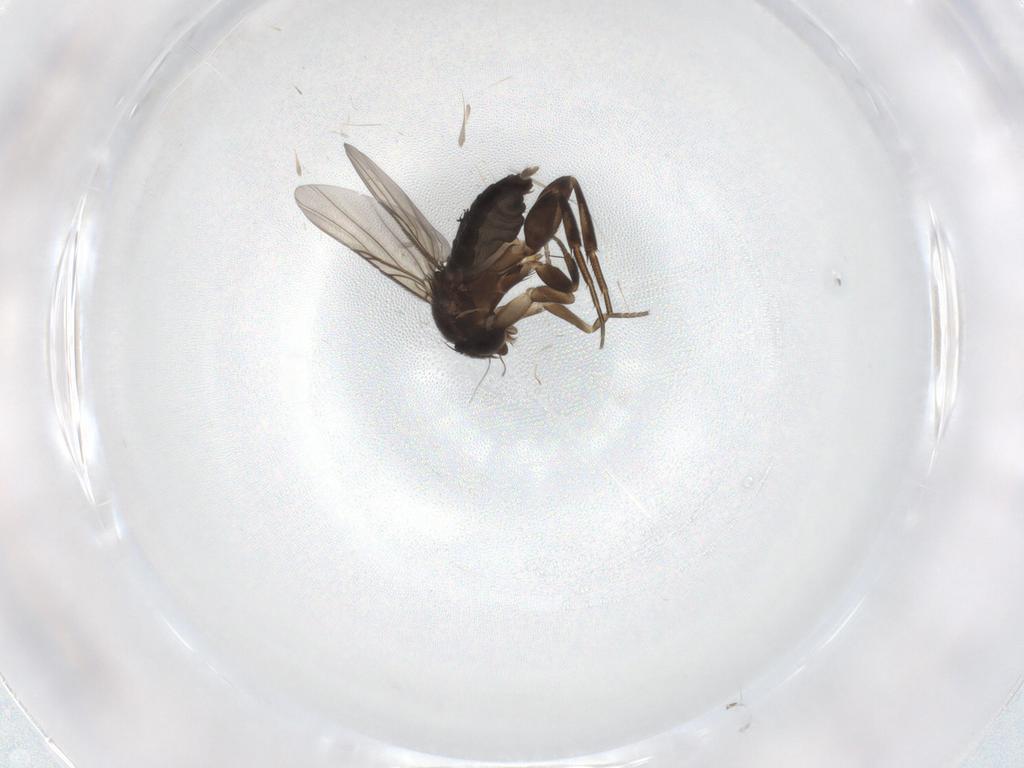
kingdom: Animalia
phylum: Arthropoda
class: Insecta
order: Diptera
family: Phoridae
